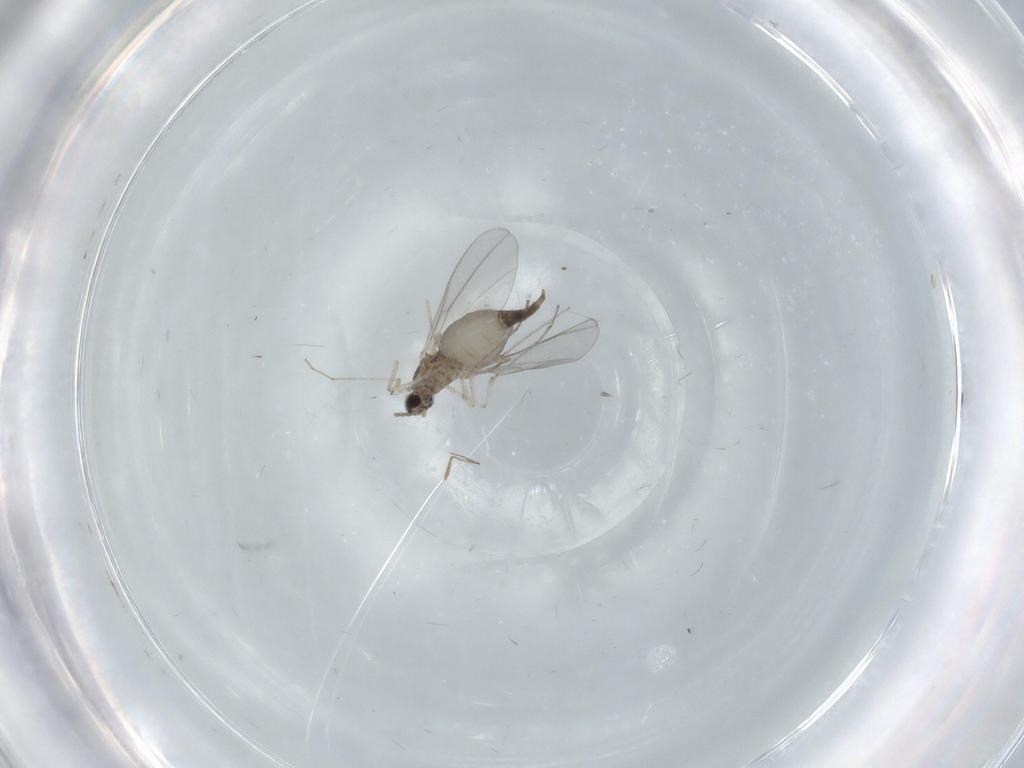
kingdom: Animalia
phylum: Arthropoda
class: Insecta
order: Diptera
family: Cecidomyiidae
